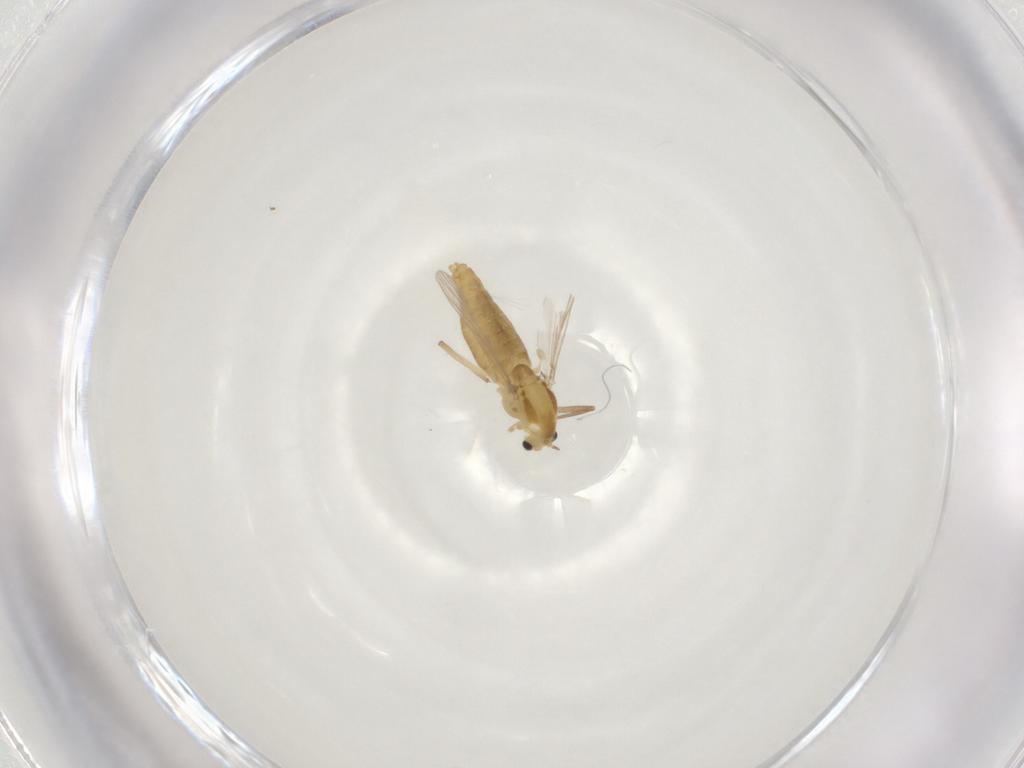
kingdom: Animalia
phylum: Arthropoda
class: Insecta
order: Diptera
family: Chironomidae
